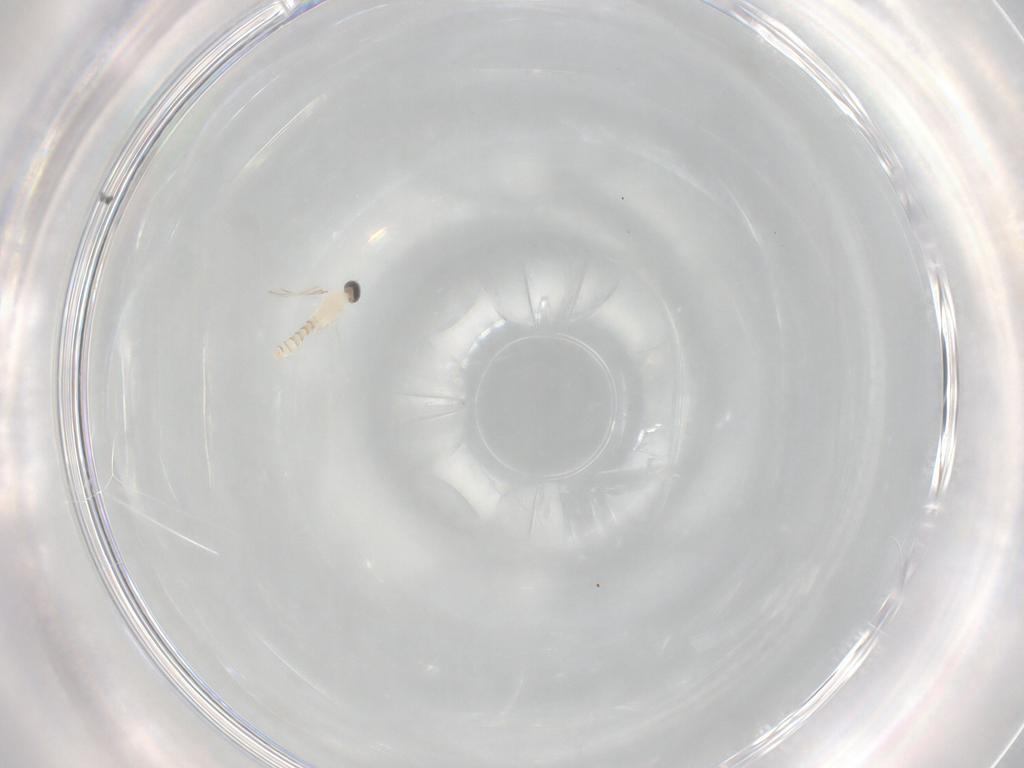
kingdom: Animalia
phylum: Arthropoda
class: Insecta
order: Diptera
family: Cecidomyiidae
